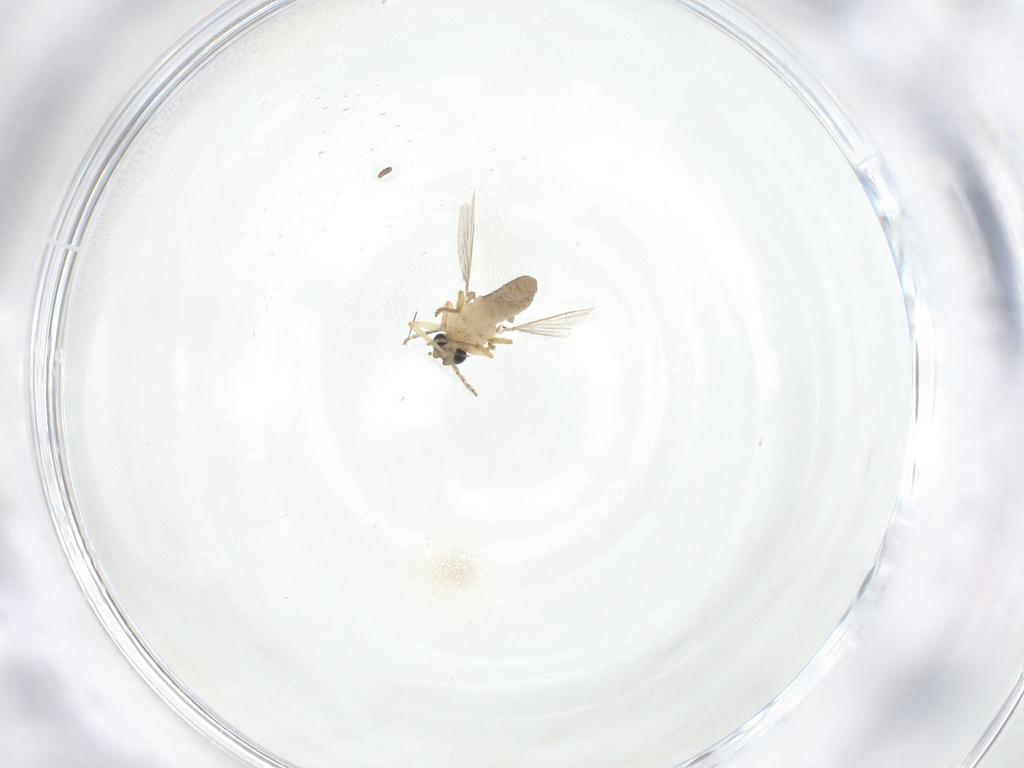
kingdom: Animalia
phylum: Arthropoda
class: Insecta
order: Diptera
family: Ceratopogonidae
